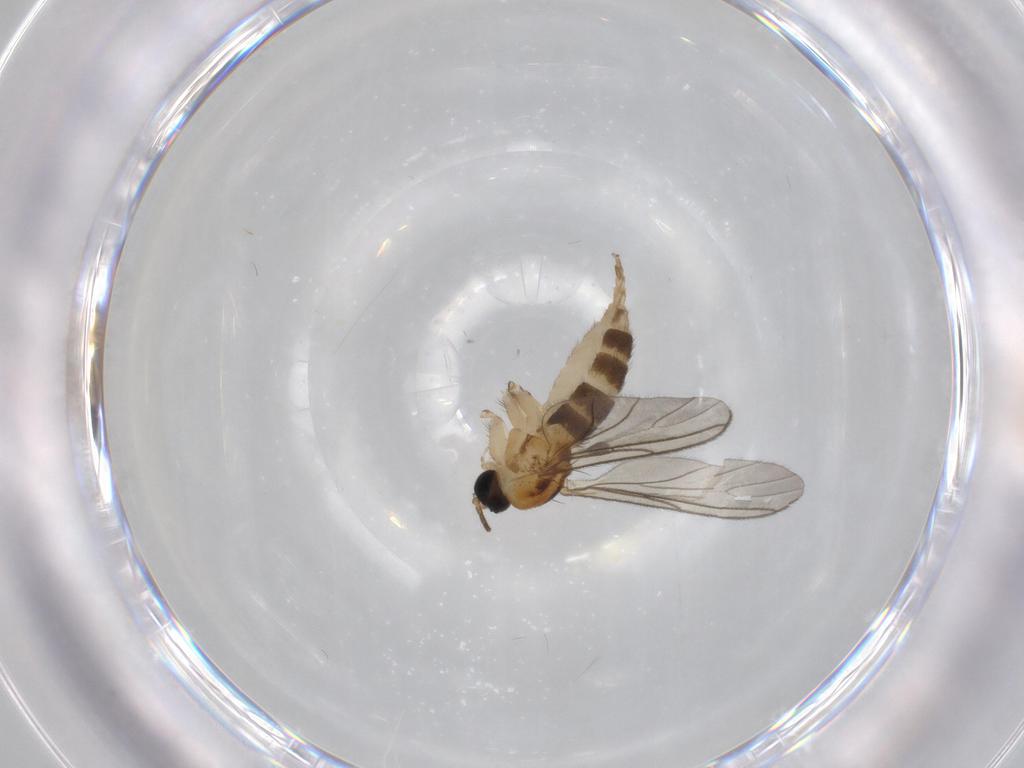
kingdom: Animalia
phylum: Arthropoda
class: Insecta
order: Diptera
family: Sciaridae
